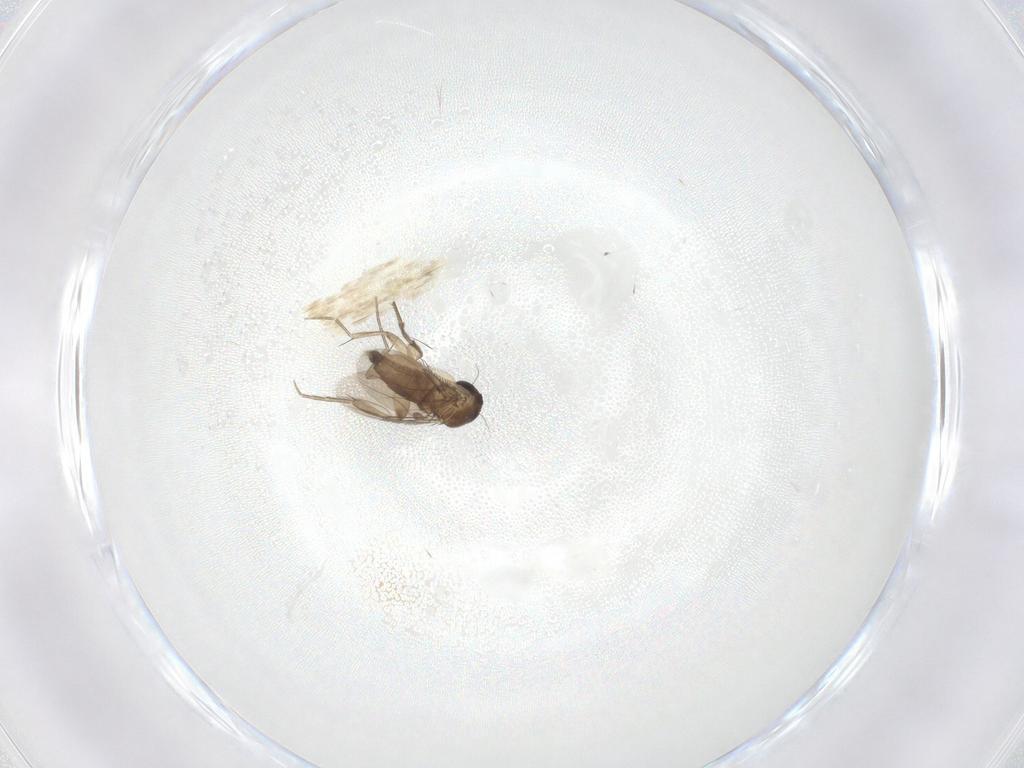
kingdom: Animalia
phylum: Arthropoda
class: Insecta
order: Diptera
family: Phoridae
